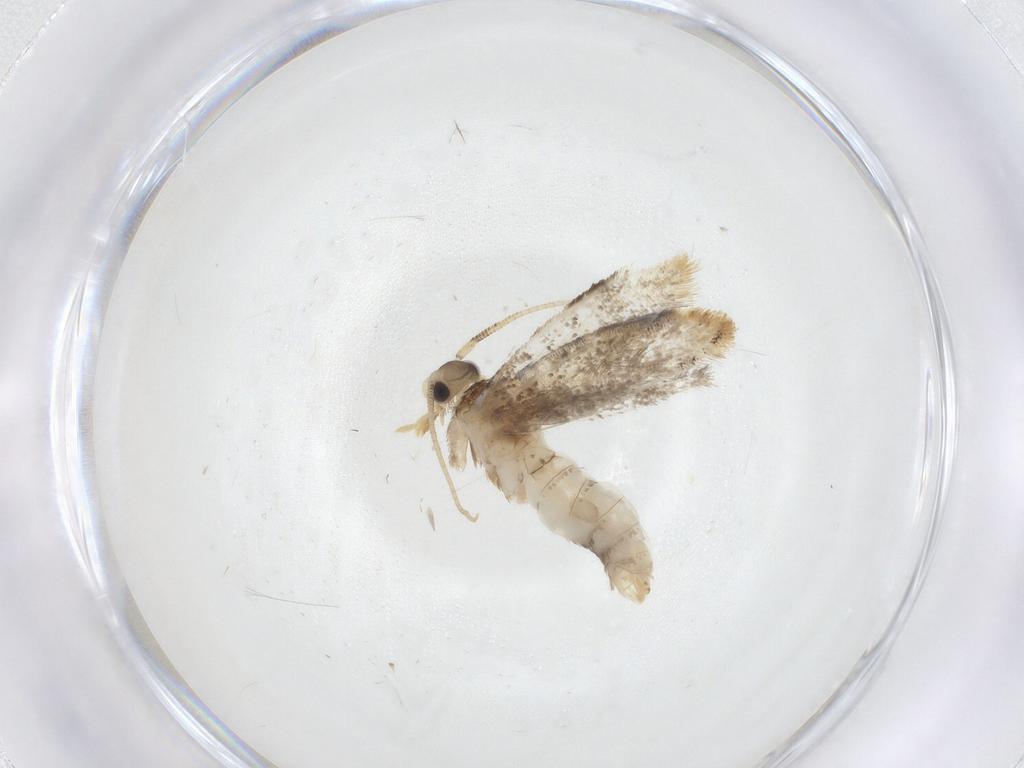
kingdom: Animalia
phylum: Arthropoda
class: Insecta
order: Lepidoptera
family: Dryadaulidae
